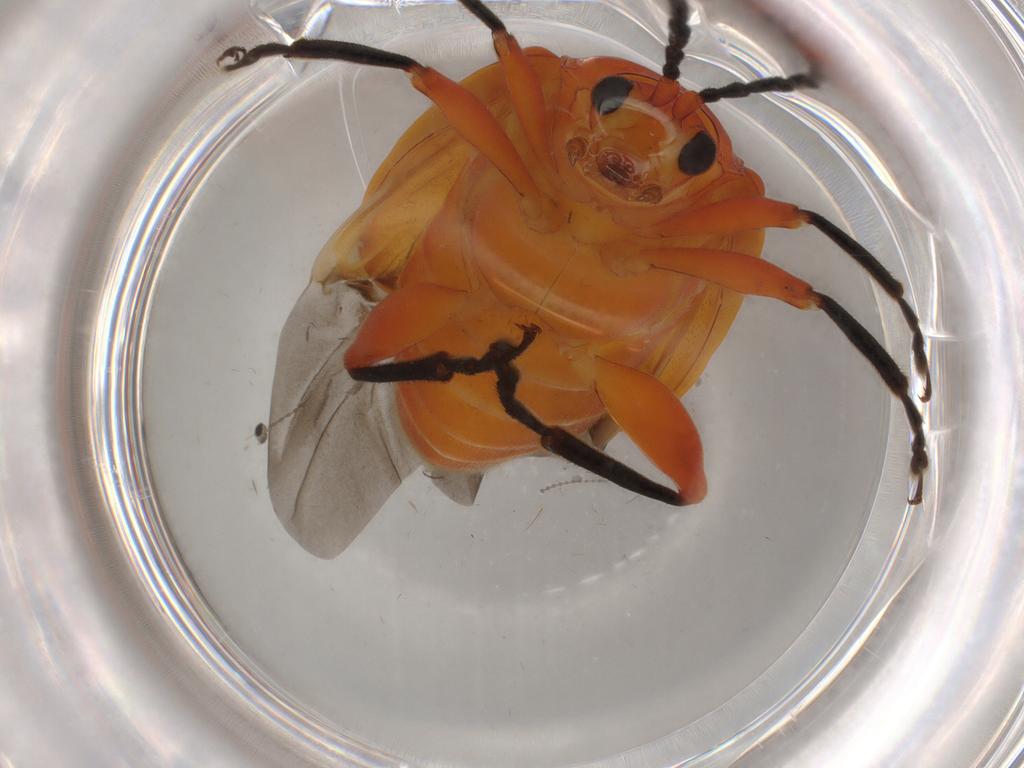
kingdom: Animalia
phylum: Arthropoda
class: Insecta
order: Coleoptera
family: Chrysomelidae
